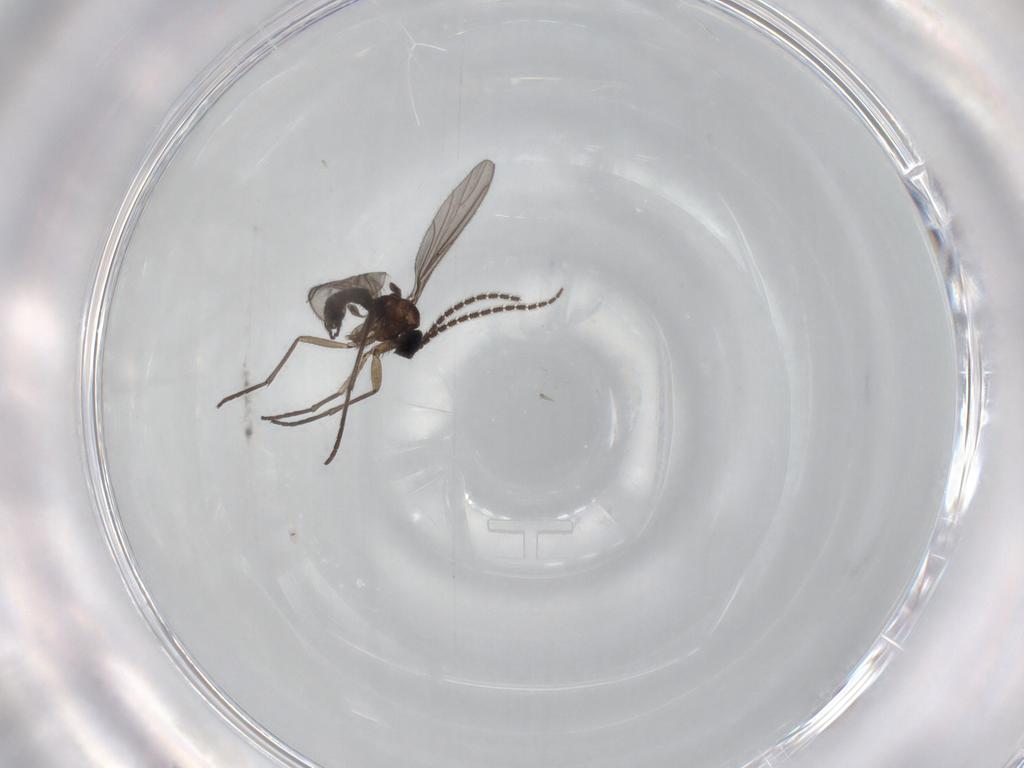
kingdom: Animalia
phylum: Arthropoda
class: Insecta
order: Diptera
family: Sciaridae
